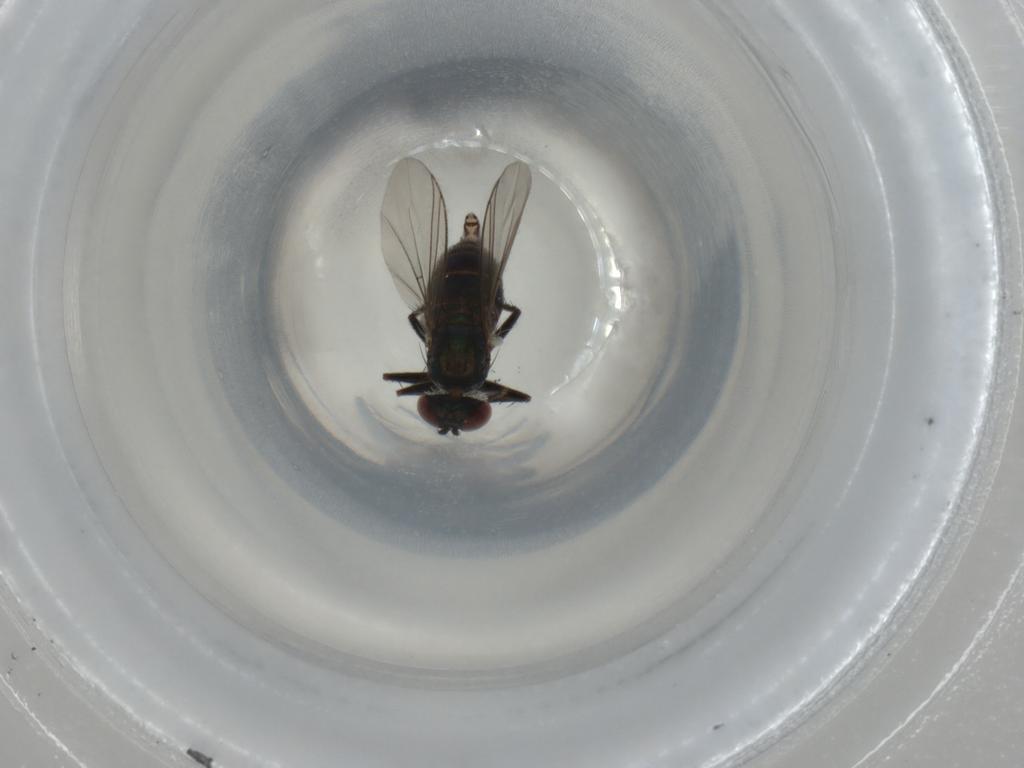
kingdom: Animalia
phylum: Arthropoda
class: Insecta
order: Diptera
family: Dolichopodidae
